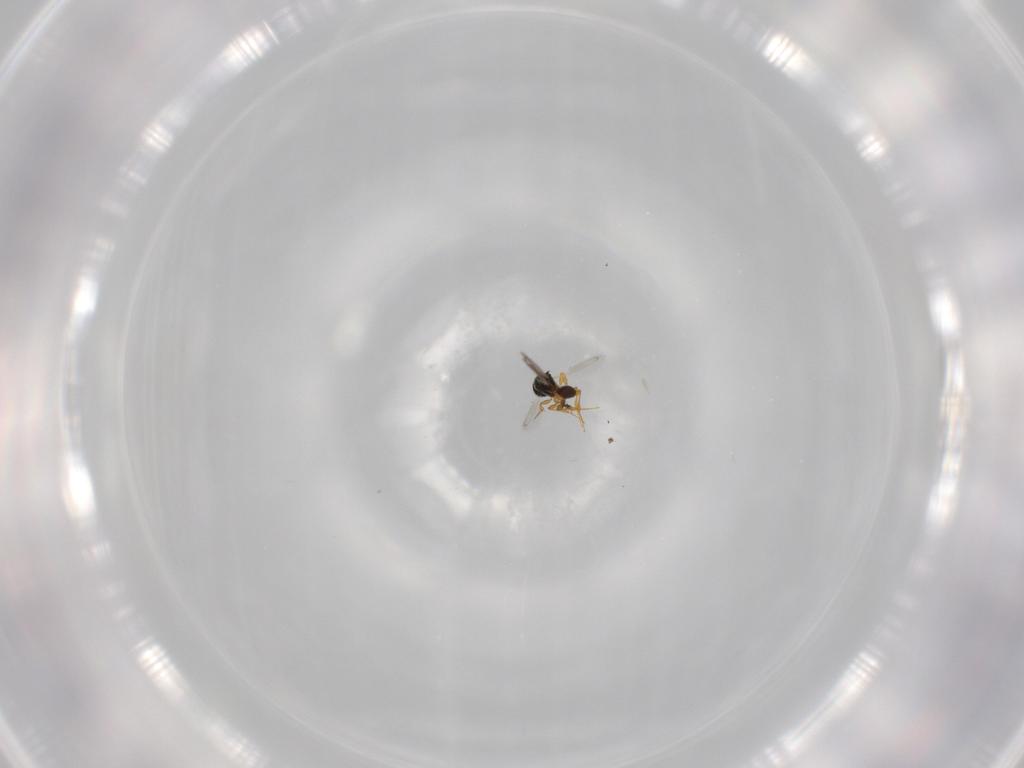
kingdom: Animalia
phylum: Arthropoda
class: Insecta
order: Hymenoptera
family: Platygastridae
